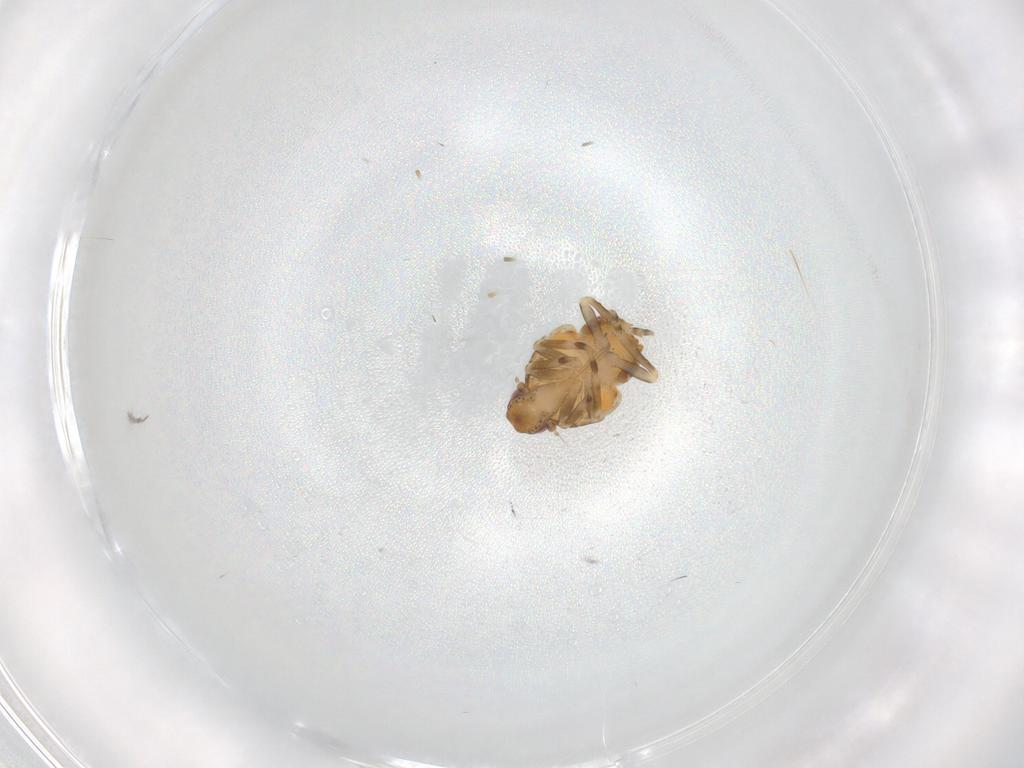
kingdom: Animalia
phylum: Arthropoda
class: Insecta
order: Hemiptera
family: Flatidae
